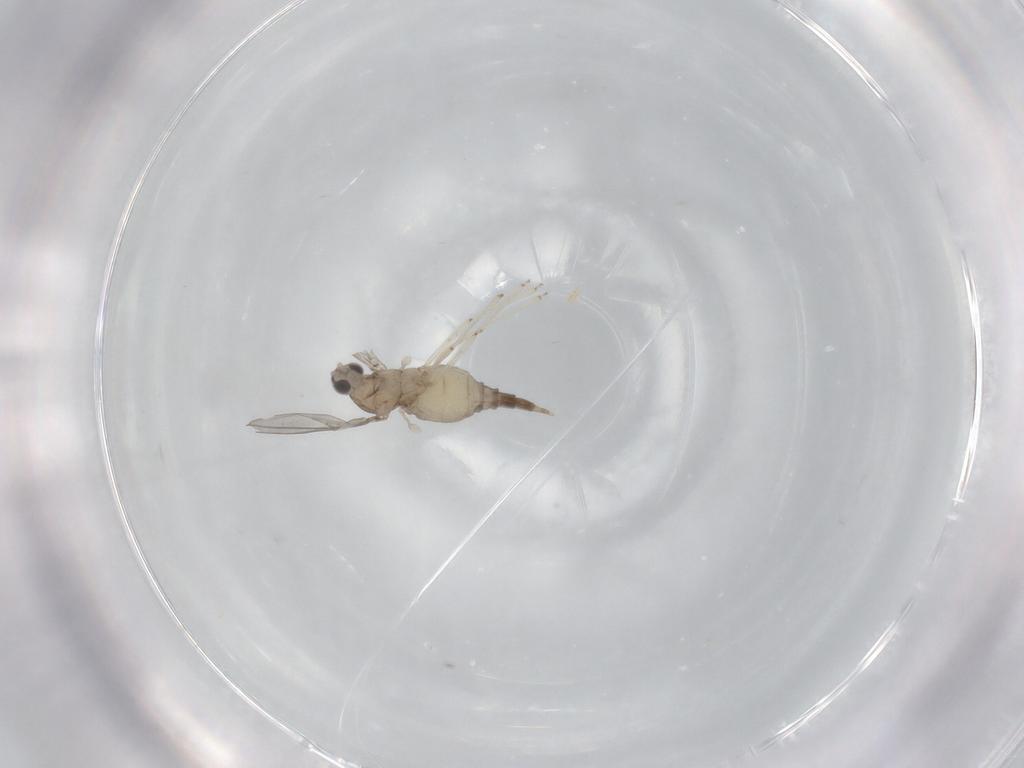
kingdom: Animalia
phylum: Arthropoda
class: Insecta
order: Diptera
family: Cecidomyiidae
